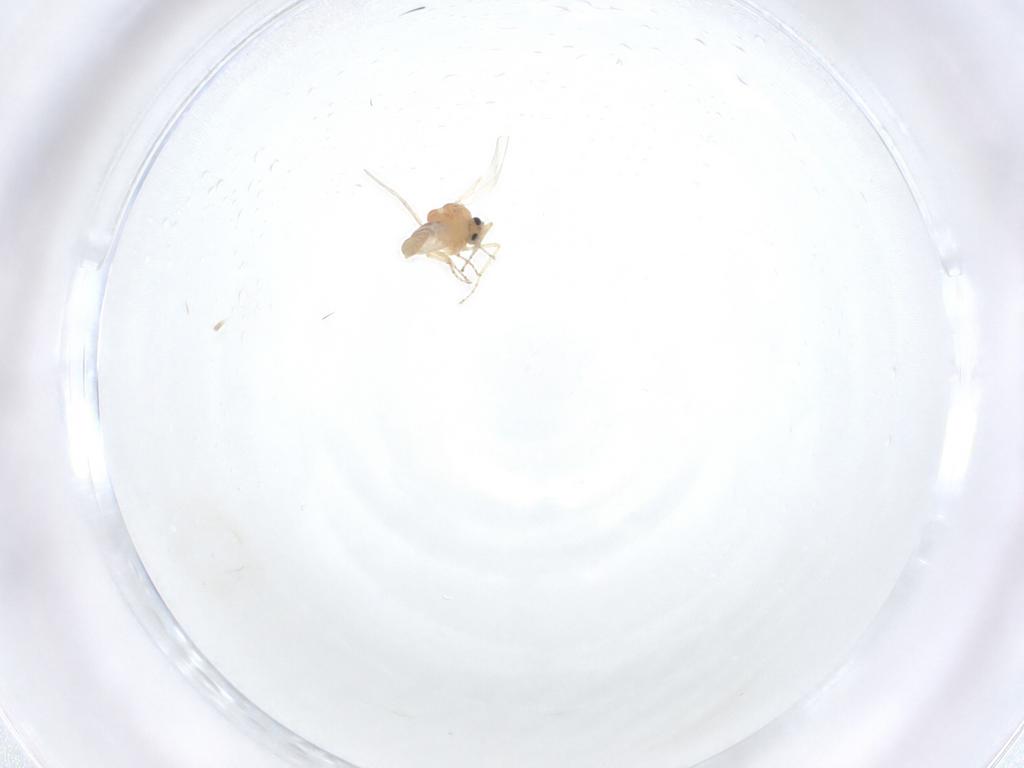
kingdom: Animalia
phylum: Arthropoda
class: Insecta
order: Diptera
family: Ceratopogonidae
